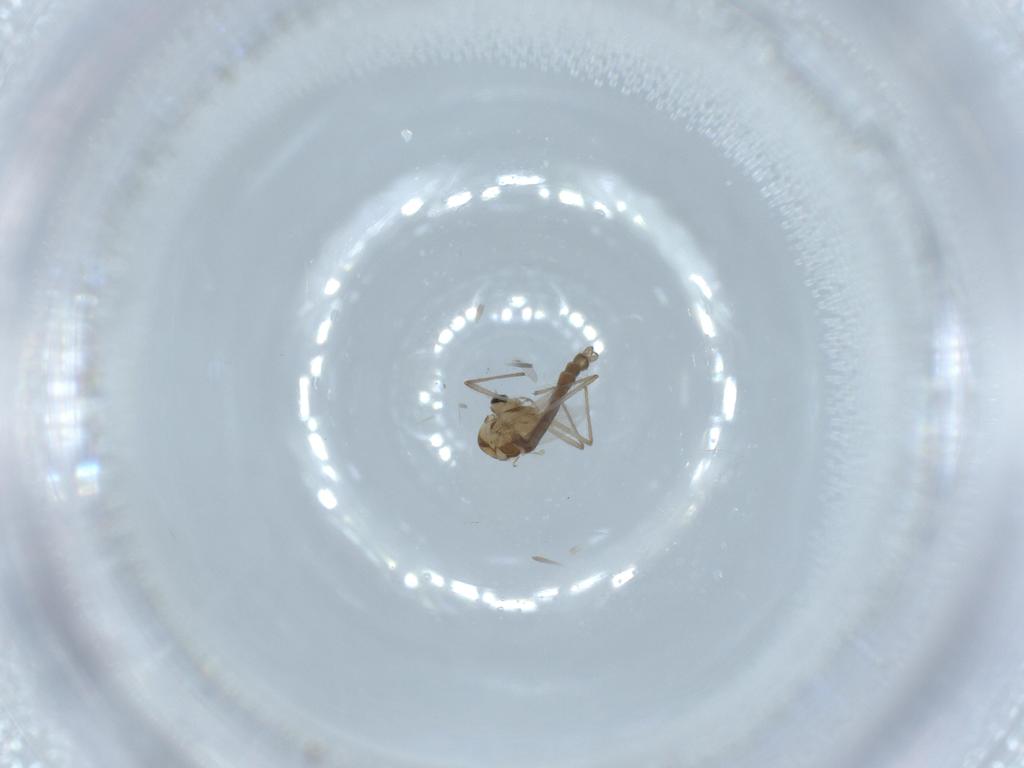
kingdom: Animalia
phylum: Arthropoda
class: Insecta
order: Diptera
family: Chironomidae
